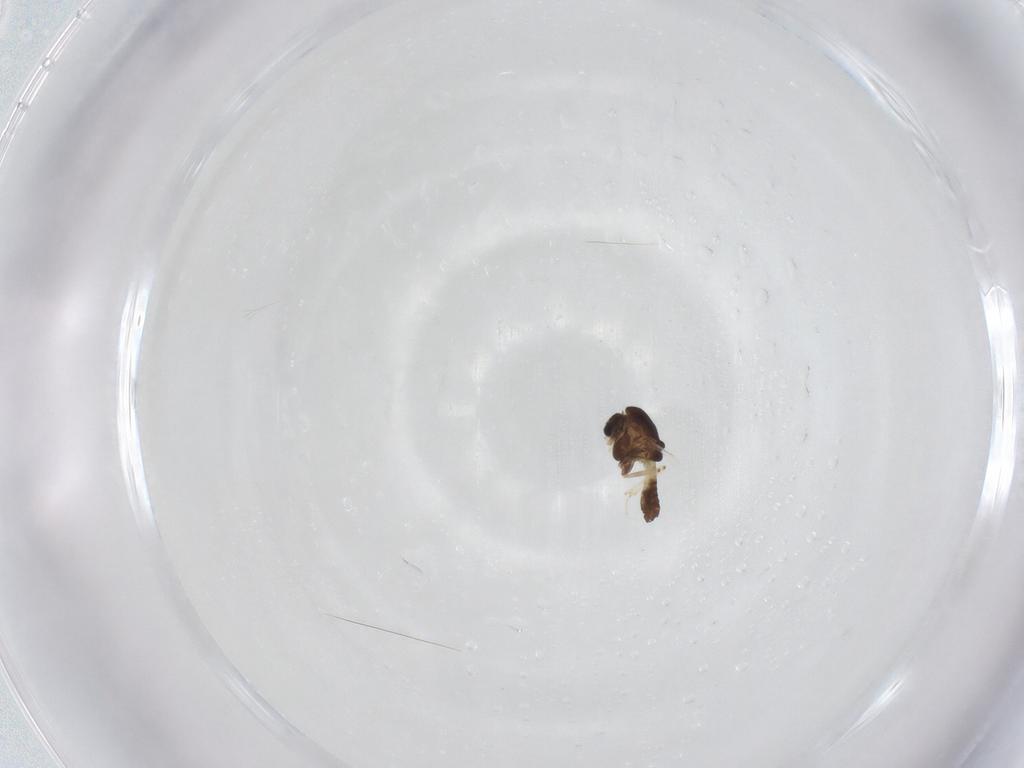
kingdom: Animalia
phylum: Arthropoda
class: Insecta
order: Diptera
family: Chironomidae
